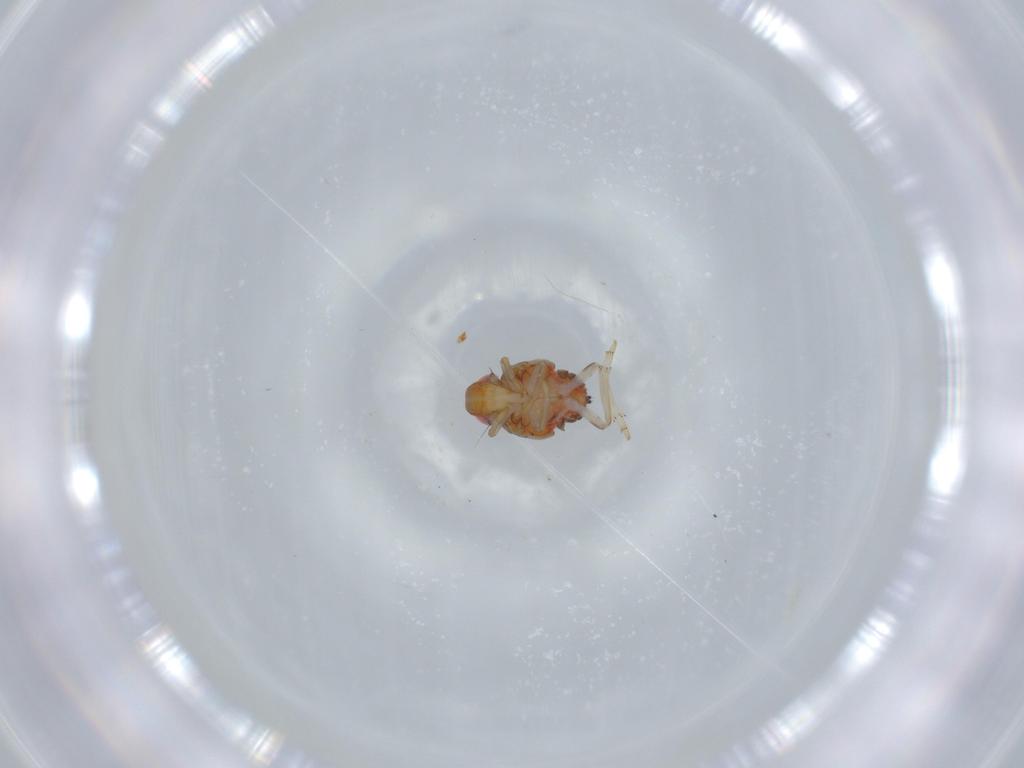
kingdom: Animalia
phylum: Arthropoda
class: Insecta
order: Hemiptera
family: Issidae
